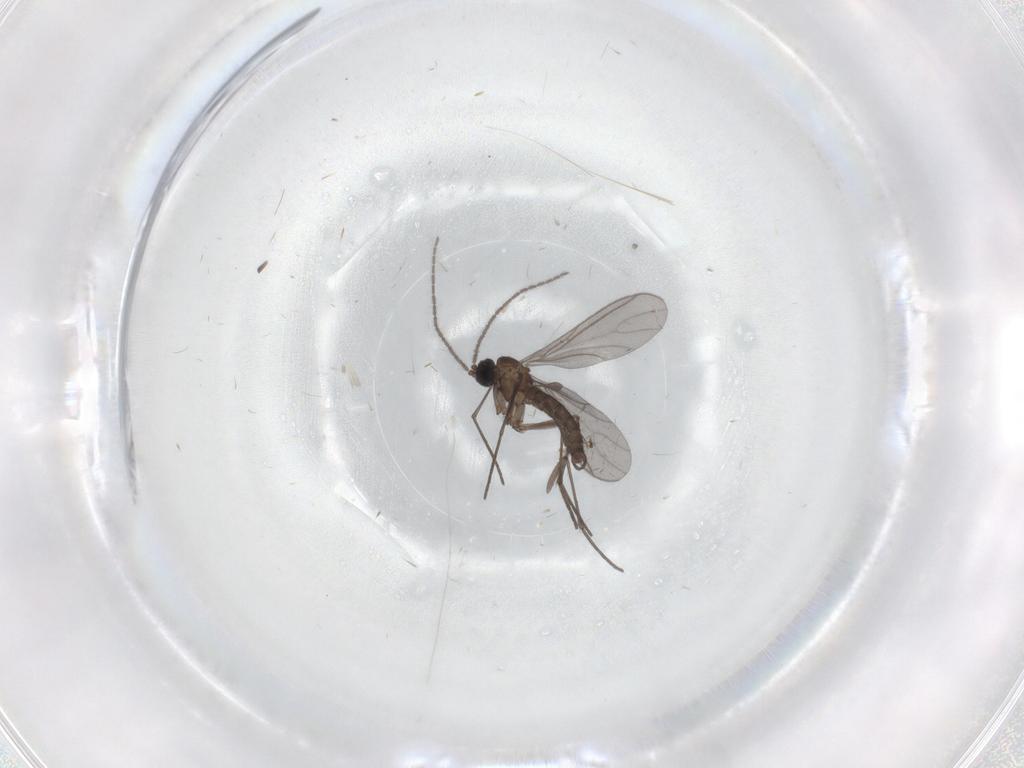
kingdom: Animalia
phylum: Arthropoda
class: Insecta
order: Diptera
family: Sciaridae
